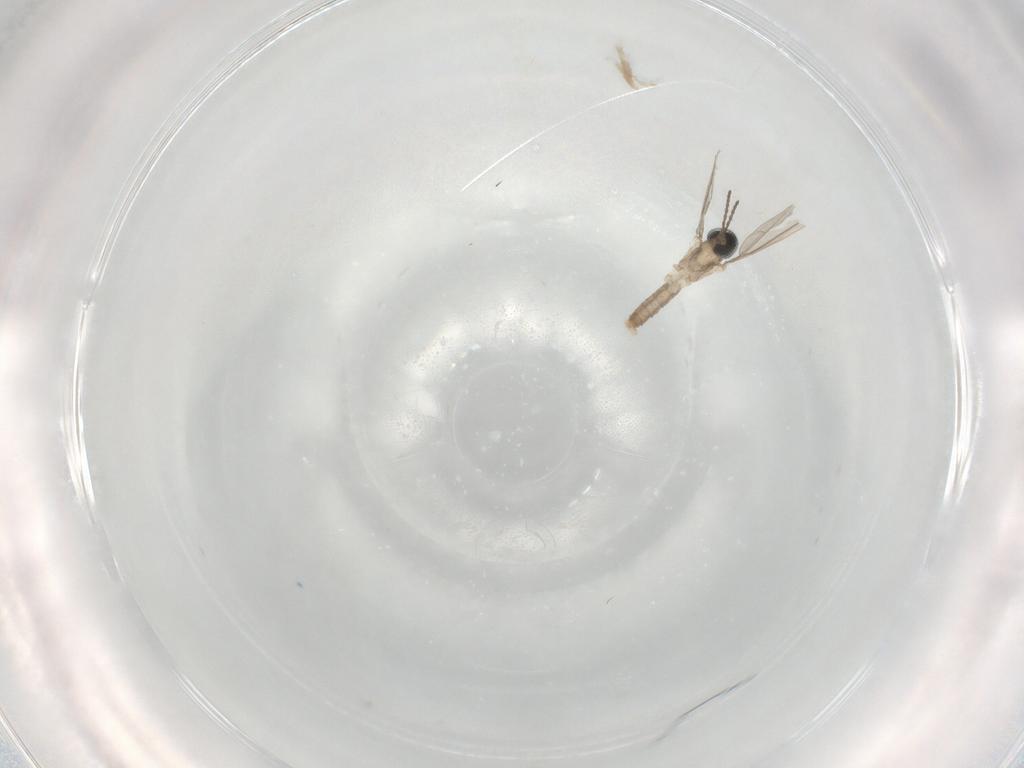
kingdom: Animalia
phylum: Arthropoda
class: Insecta
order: Diptera
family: Cecidomyiidae
